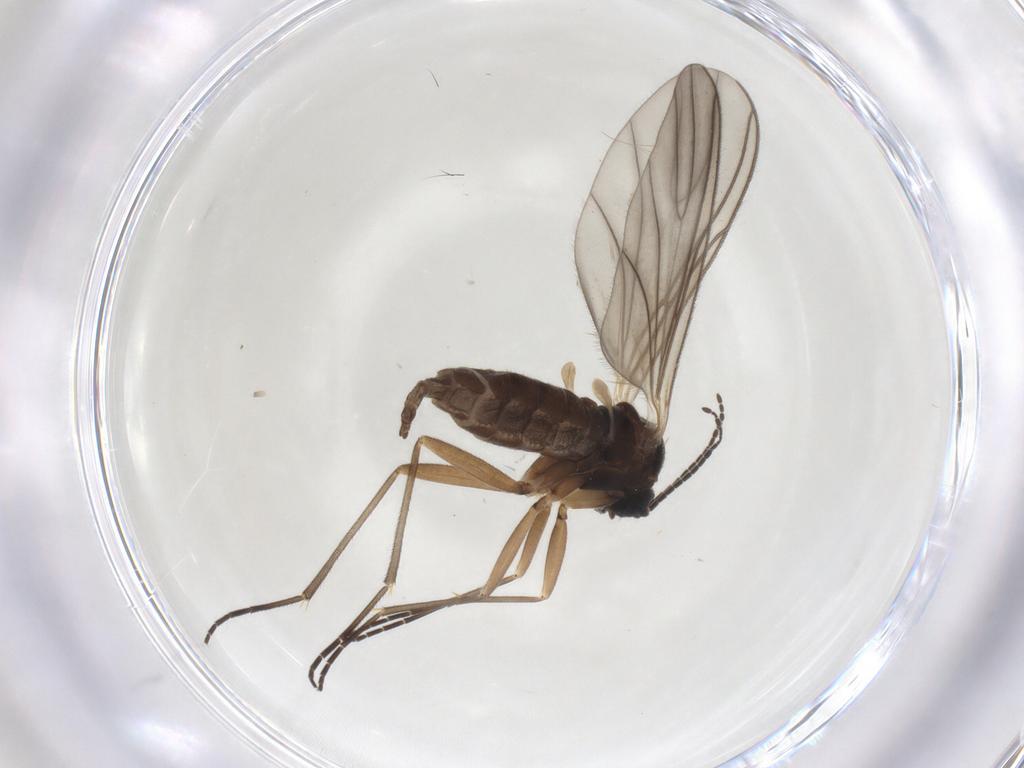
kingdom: Animalia
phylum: Arthropoda
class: Insecta
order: Diptera
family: Sciaridae
